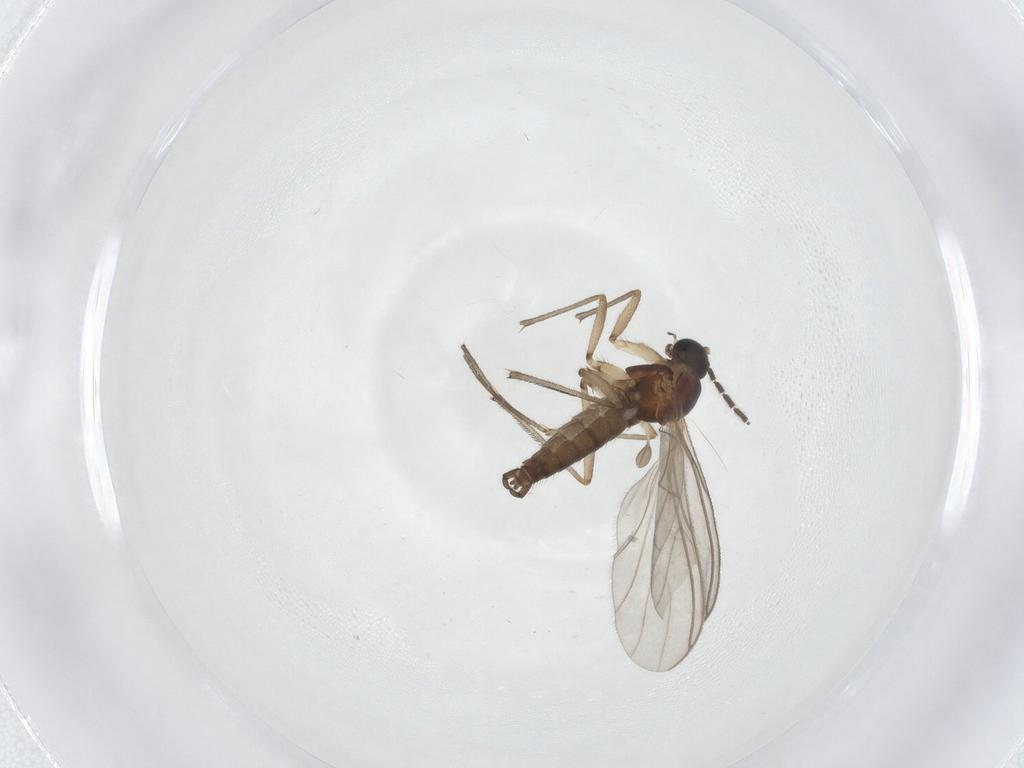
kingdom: Animalia
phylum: Arthropoda
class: Insecta
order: Diptera
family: Sciaridae
